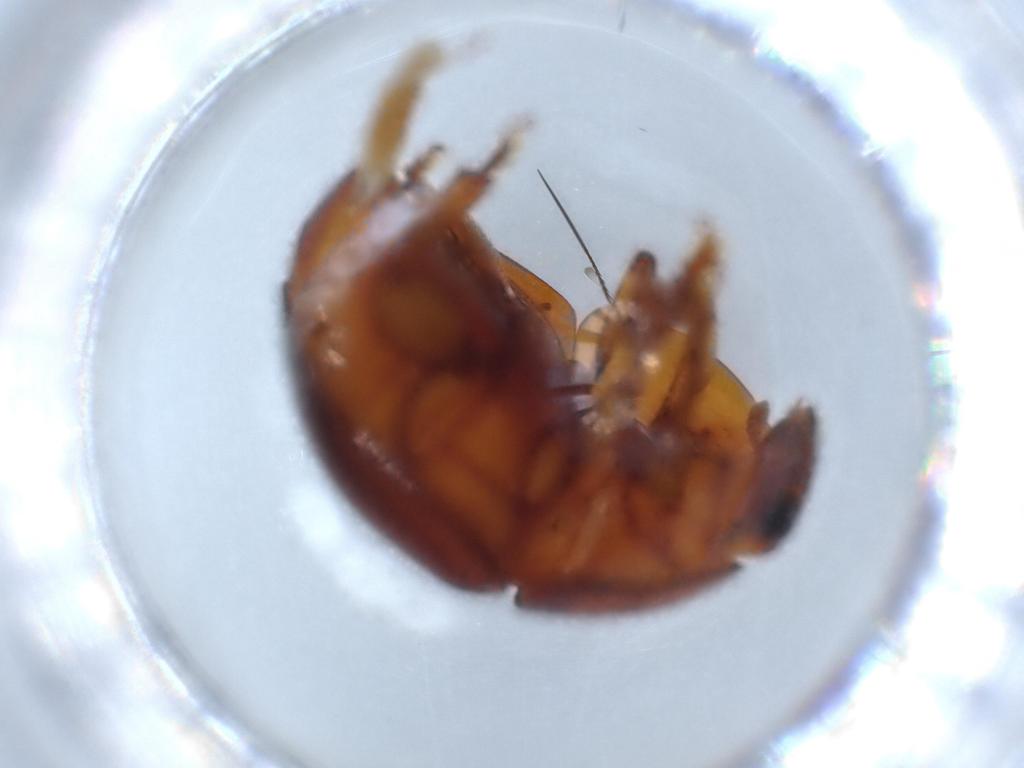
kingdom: Animalia
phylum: Arthropoda
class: Insecta
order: Coleoptera
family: Nitidulidae
